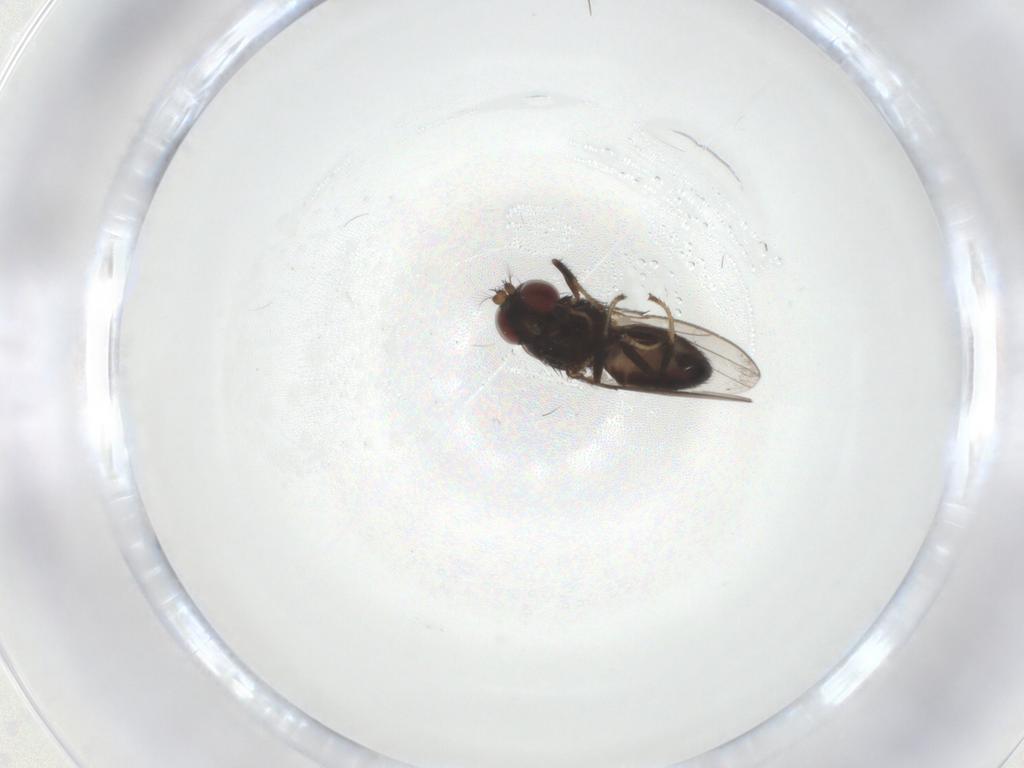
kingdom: Animalia
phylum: Arthropoda
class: Insecta
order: Diptera
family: Ephydridae
